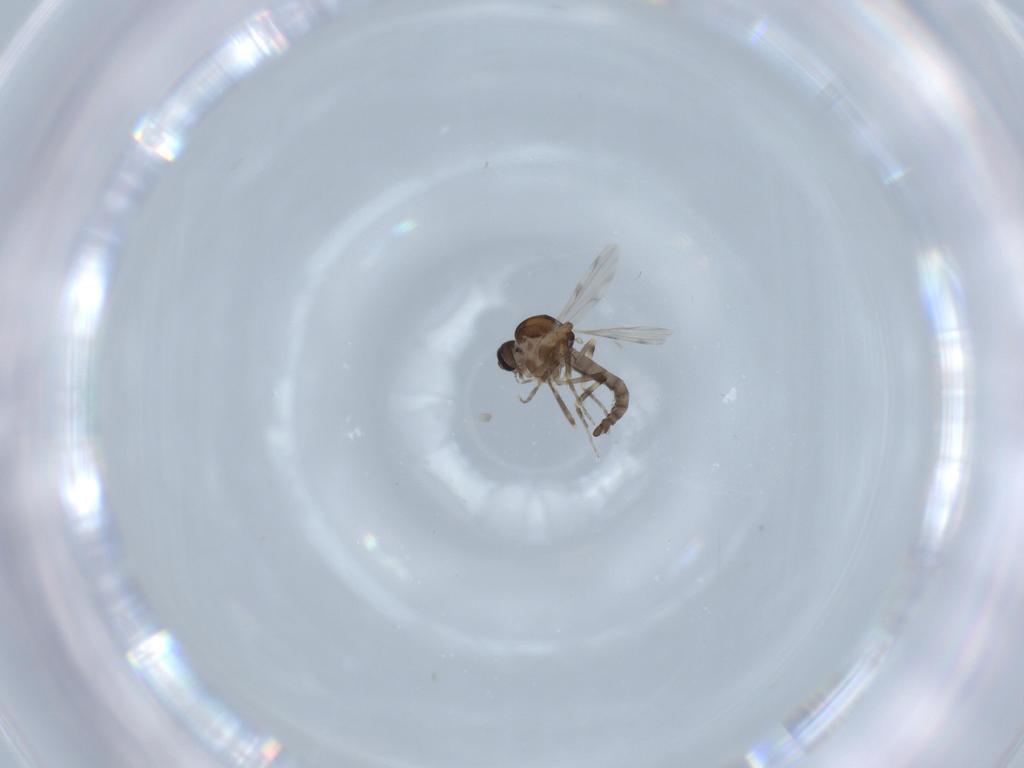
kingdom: Animalia
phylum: Arthropoda
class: Insecta
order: Diptera
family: Ceratopogonidae
